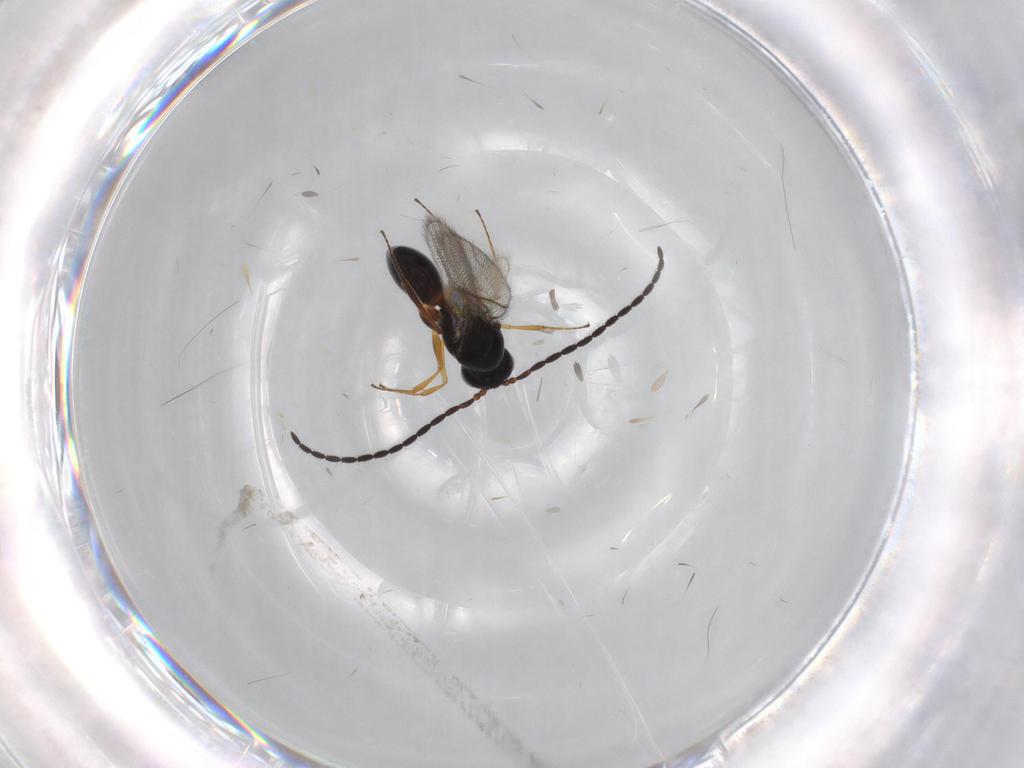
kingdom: Animalia
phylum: Arthropoda
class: Insecta
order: Hymenoptera
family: Figitidae
